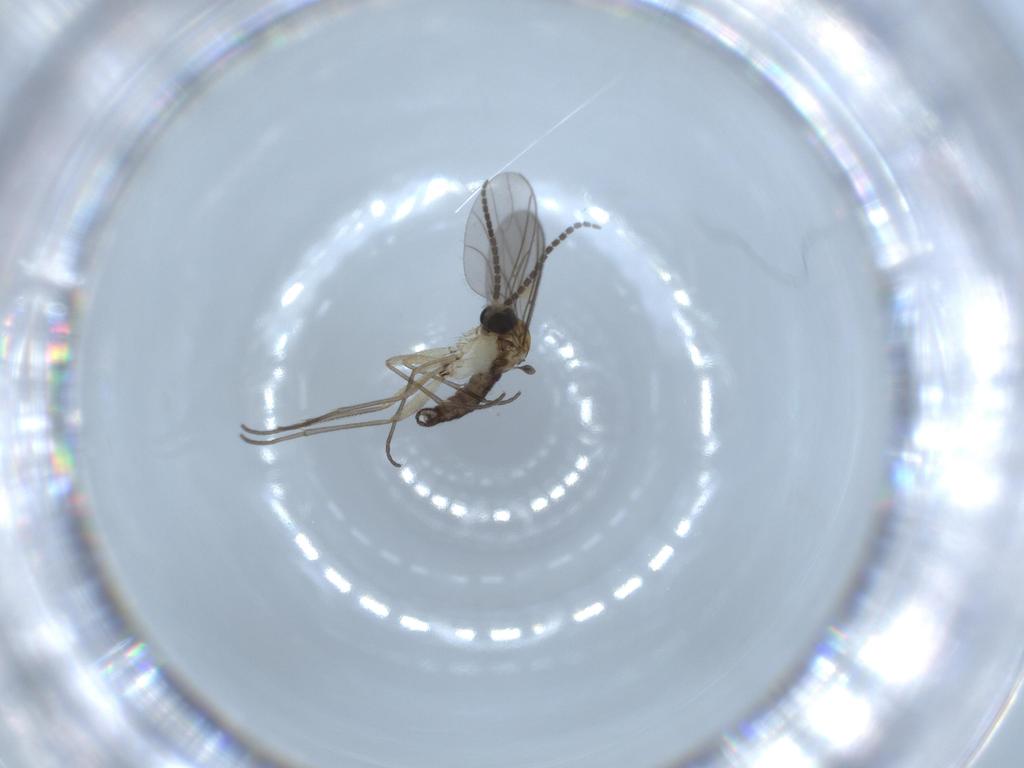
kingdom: Animalia
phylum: Arthropoda
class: Insecta
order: Diptera
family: Sciaridae
